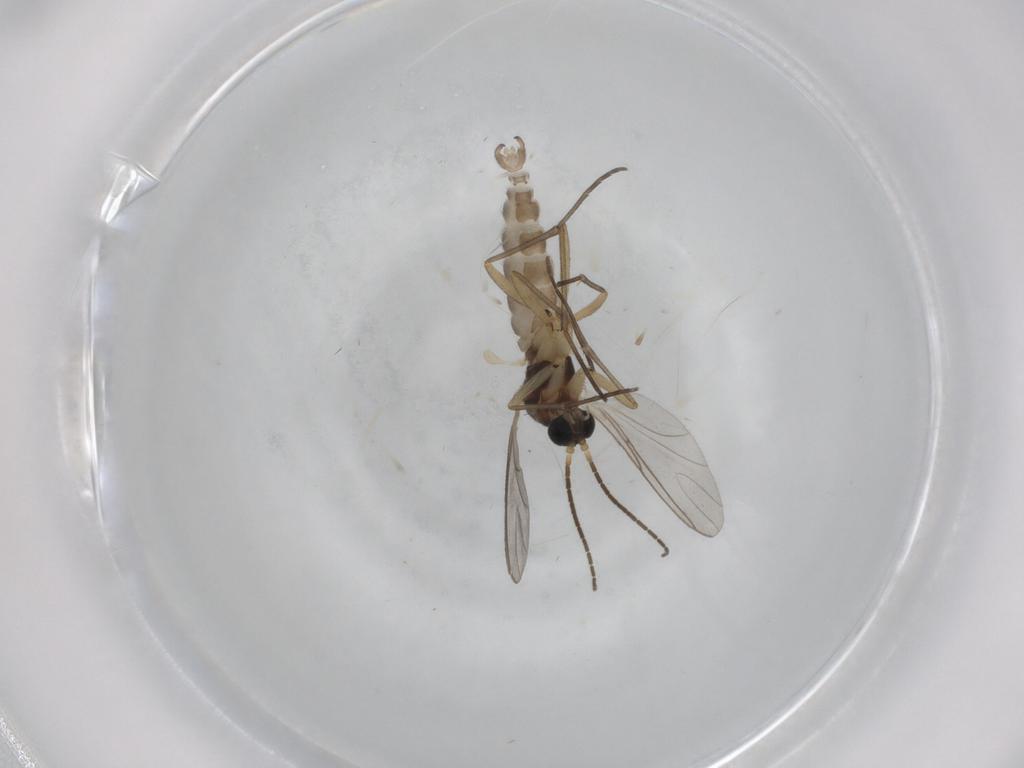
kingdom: Animalia
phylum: Arthropoda
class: Insecta
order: Diptera
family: Sciaridae
